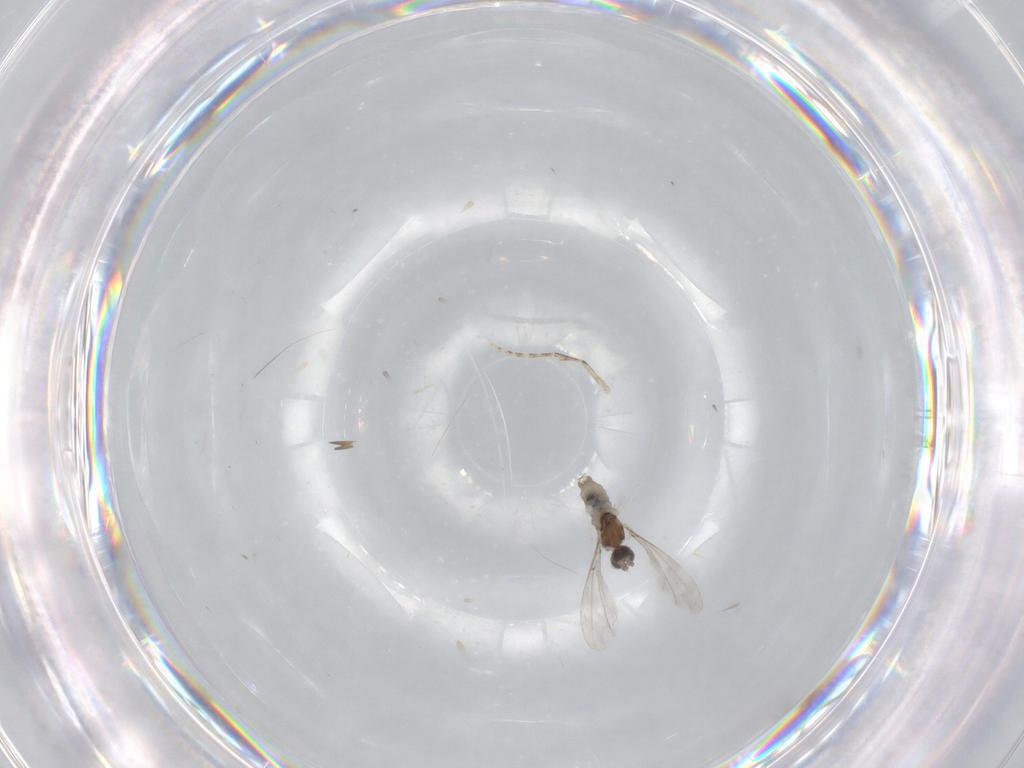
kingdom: Animalia
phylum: Arthropoda
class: Insecta
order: Diptera
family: Cecidomyiidae
